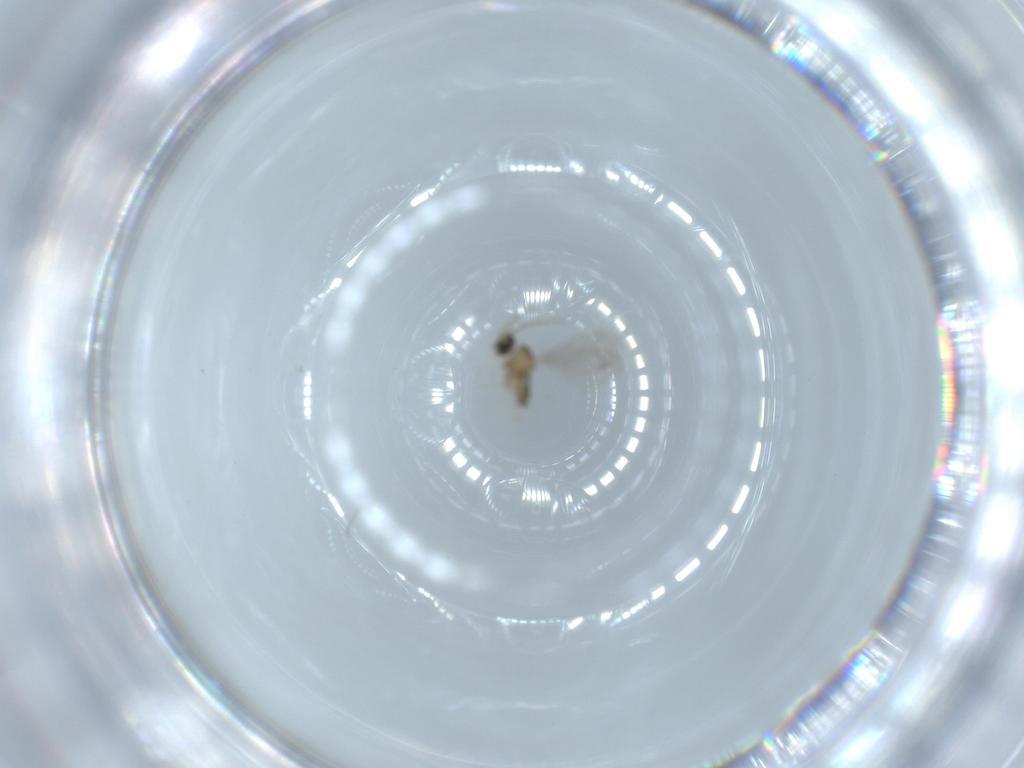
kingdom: Animalia
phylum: Arthropoda
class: Insecta
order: Diptera
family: Cecidomyiidae
